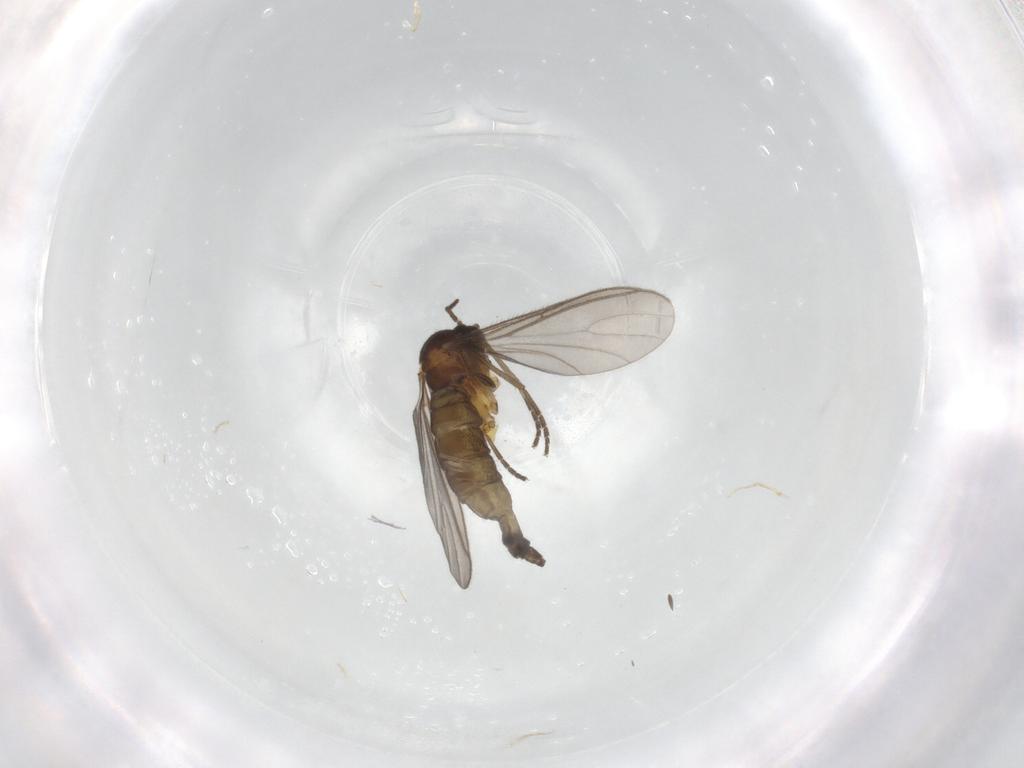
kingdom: Animalia
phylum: Arthropoda
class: Insecta
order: Diptera
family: Sciaridae
